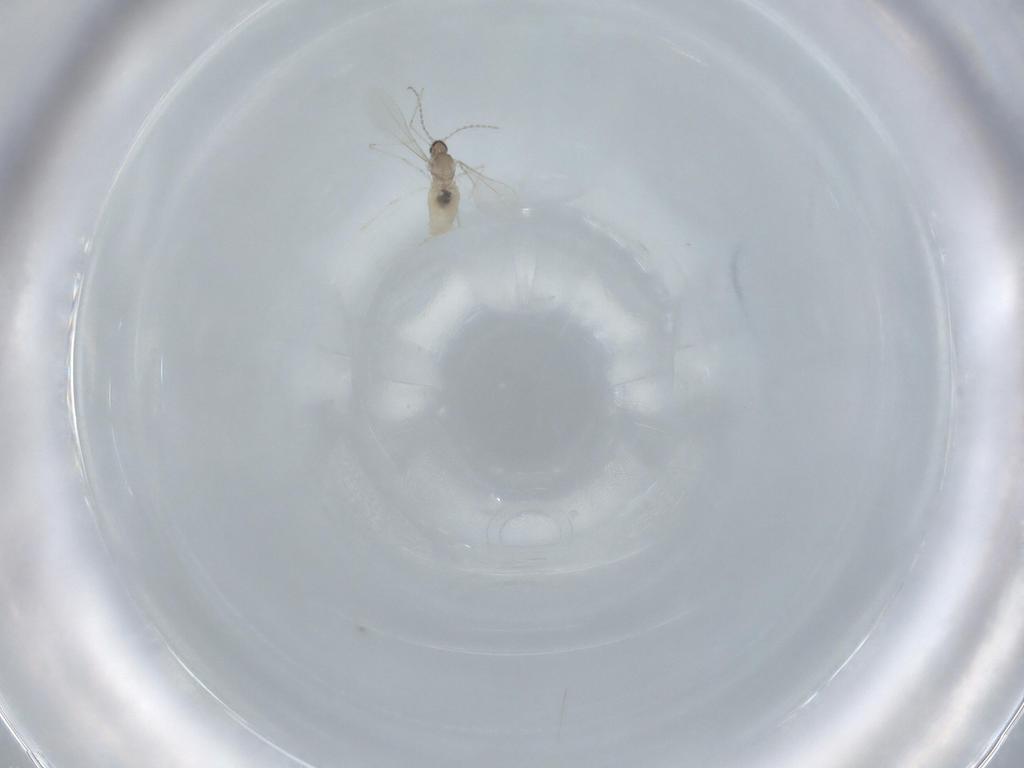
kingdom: Animalia
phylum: Arthropoda
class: Insecta
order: Diptera
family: Cecidomyiidae
